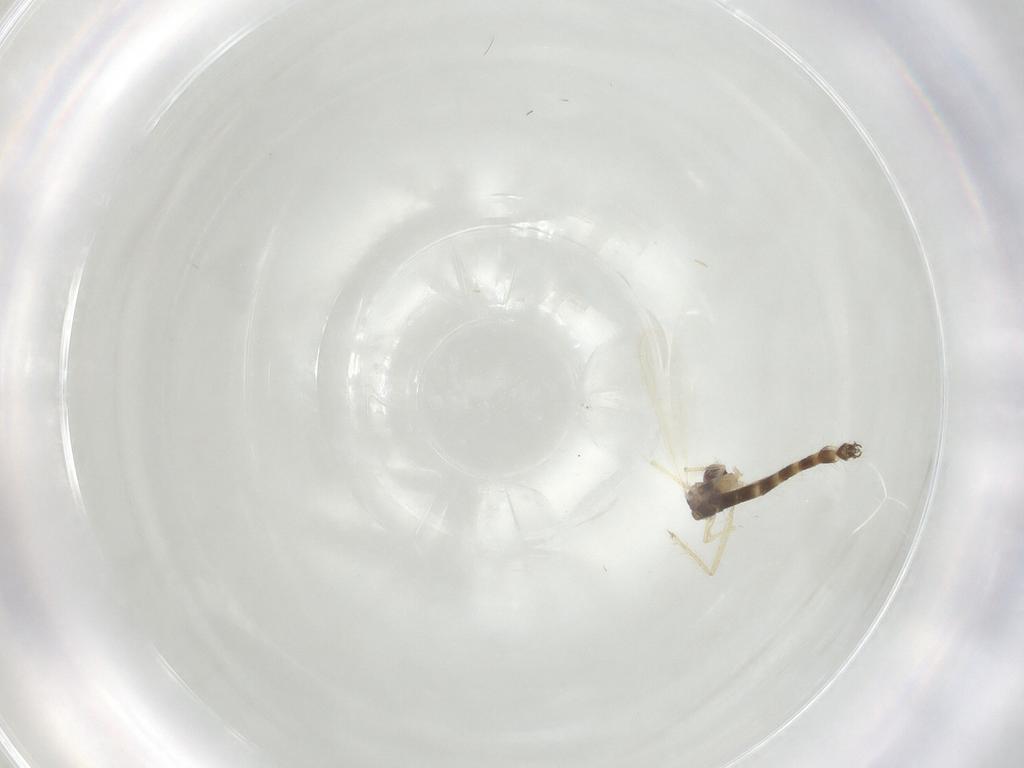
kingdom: Animalia
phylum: Arthropoda
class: Insecta
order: Diptera
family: Chironomidae
